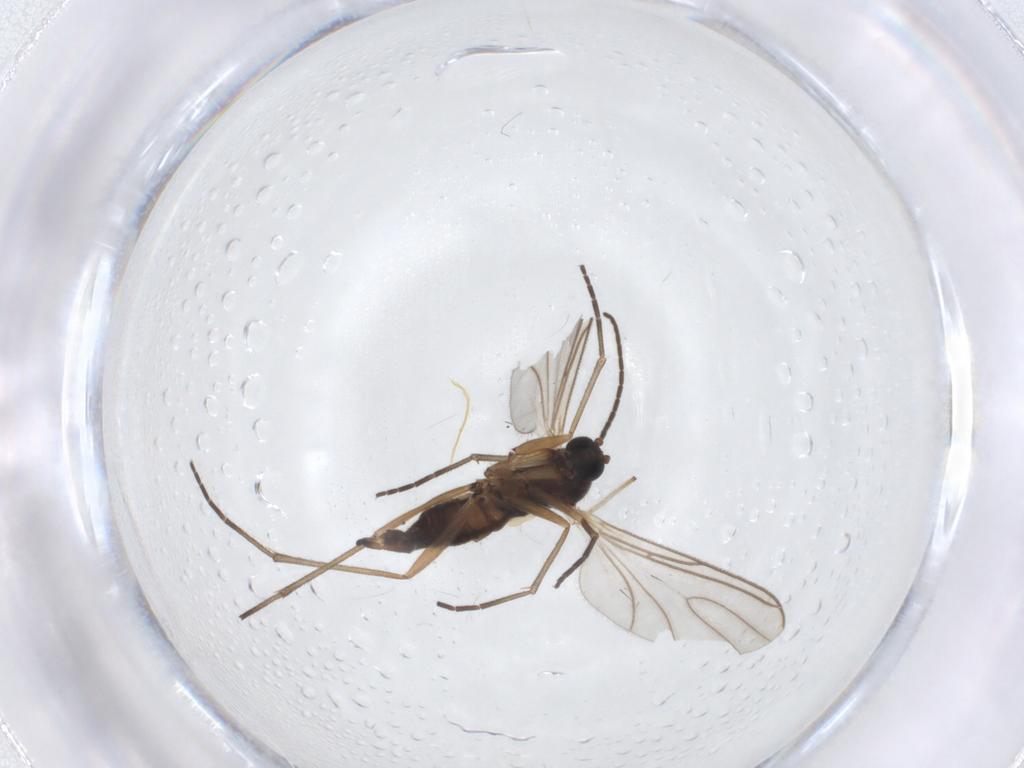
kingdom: Animalia
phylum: Arthropoda
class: Insecta
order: Diptera
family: Sciaridae
